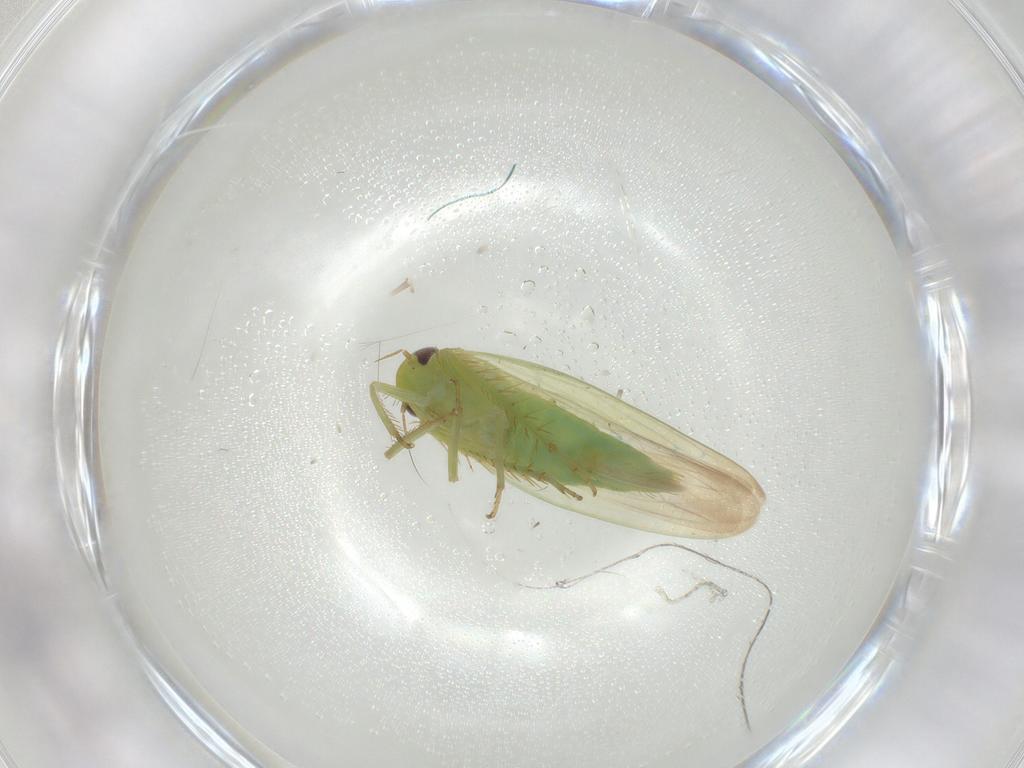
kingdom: Animalia
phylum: Arthropoda
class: Insecta
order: Hemiptera
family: Cicadellidae
